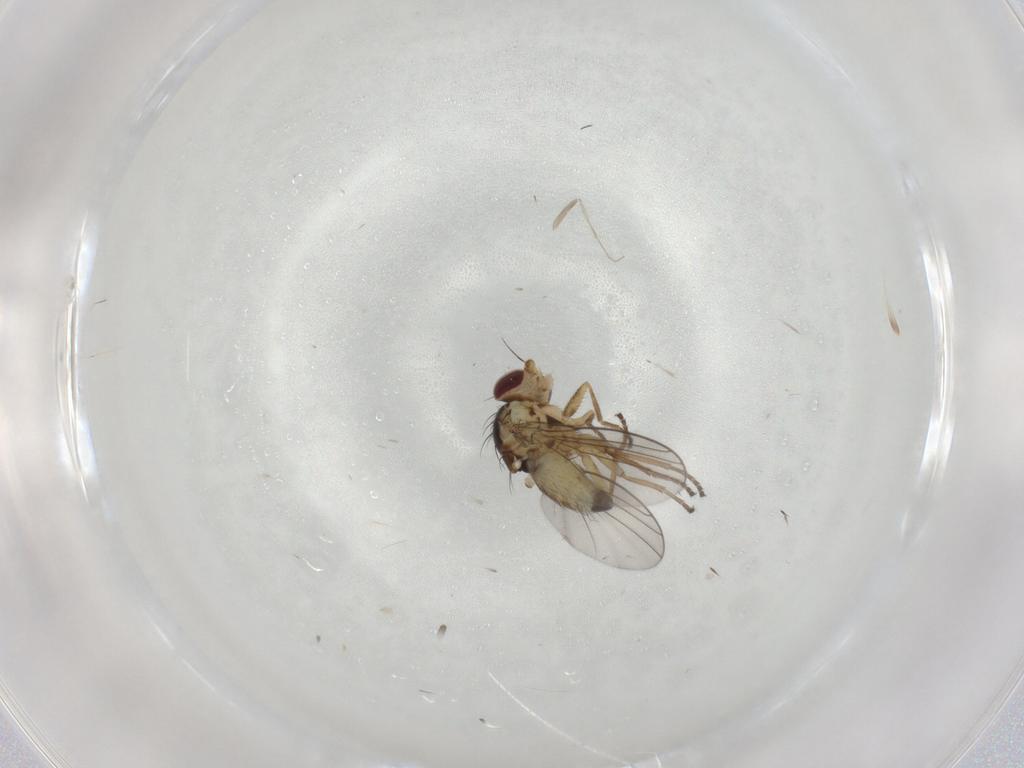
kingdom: Animalia
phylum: Arthropoda
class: Insecta
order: Diptera
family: Agromyzidae
